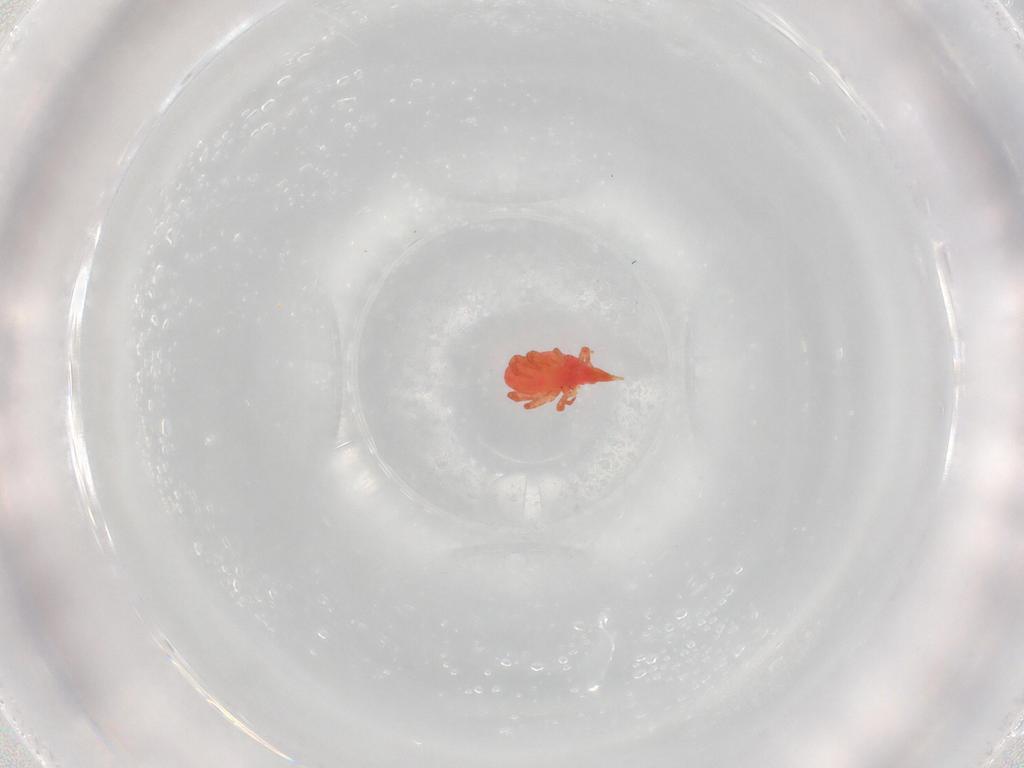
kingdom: Animalia
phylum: Arthropoda
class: Arachnida
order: Trombidiformes
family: Bdellidae
